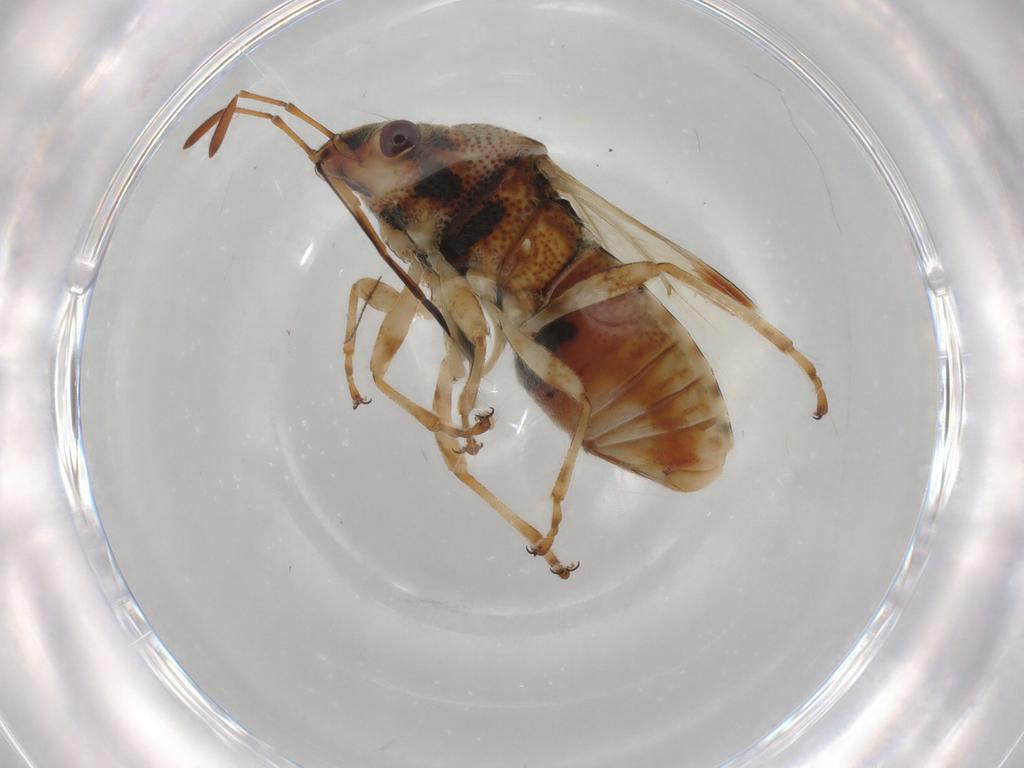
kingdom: Animalia
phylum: Arthropoda
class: Insecta
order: Hemiptera
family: Lygaeidae
